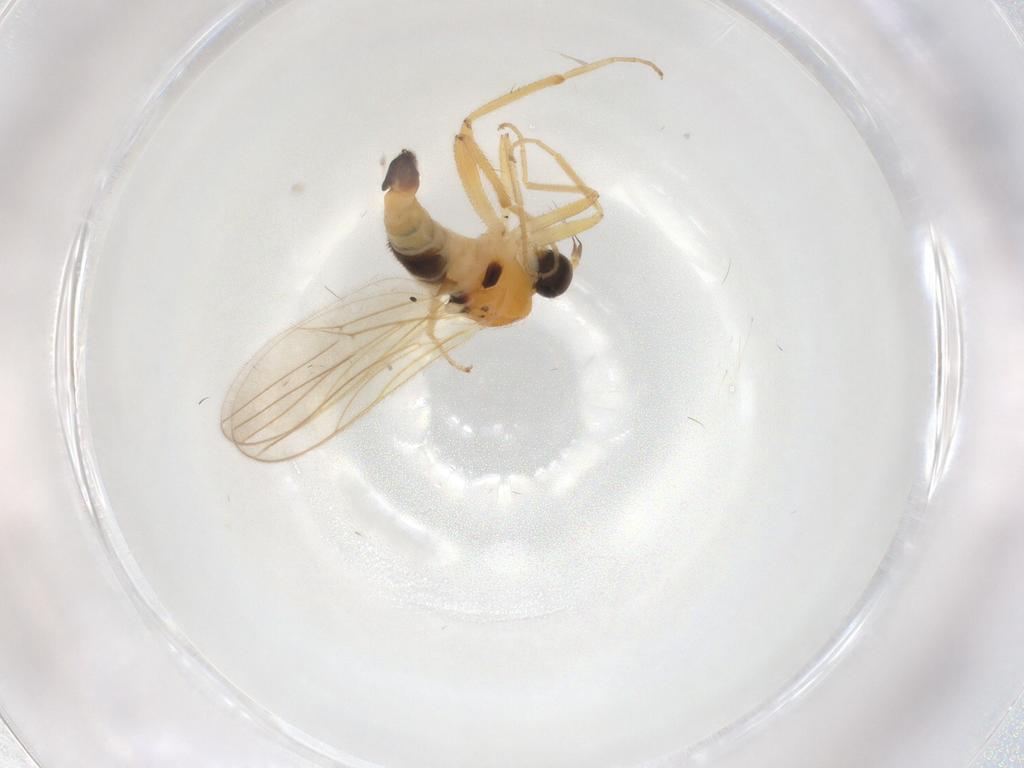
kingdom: Animalia
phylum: Arthropoda
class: Insecta
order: Diptera
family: Hybotidae
